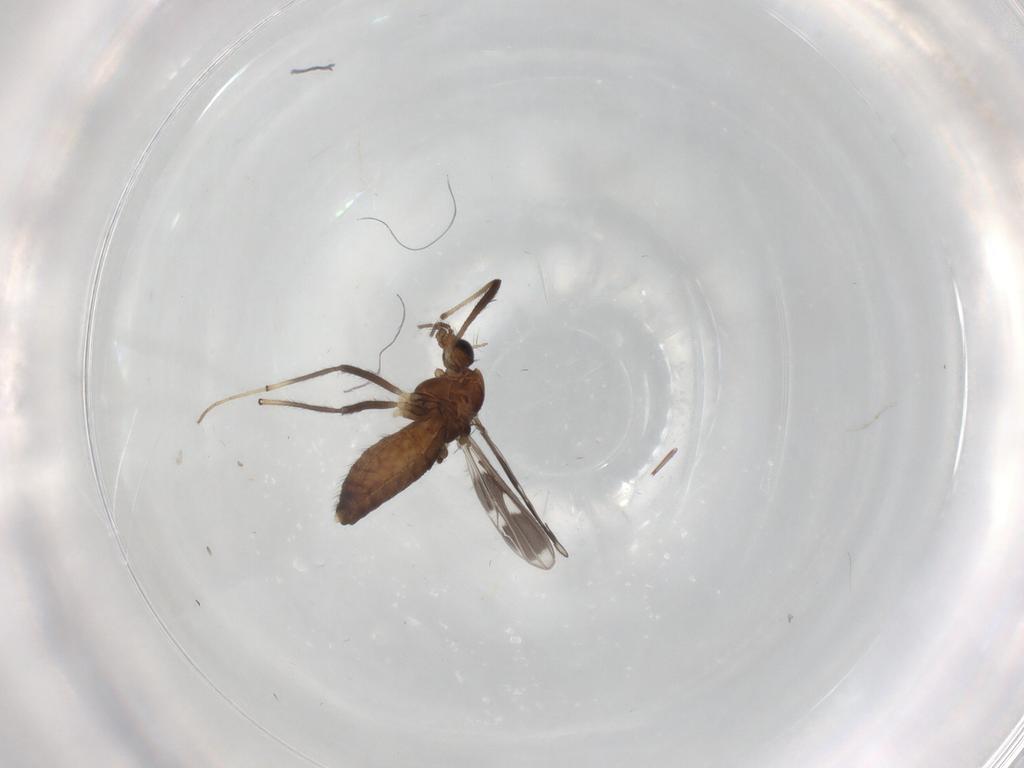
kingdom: Animalia
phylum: Arthropoda
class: Insecta
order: Diptera
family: Chironomidae
